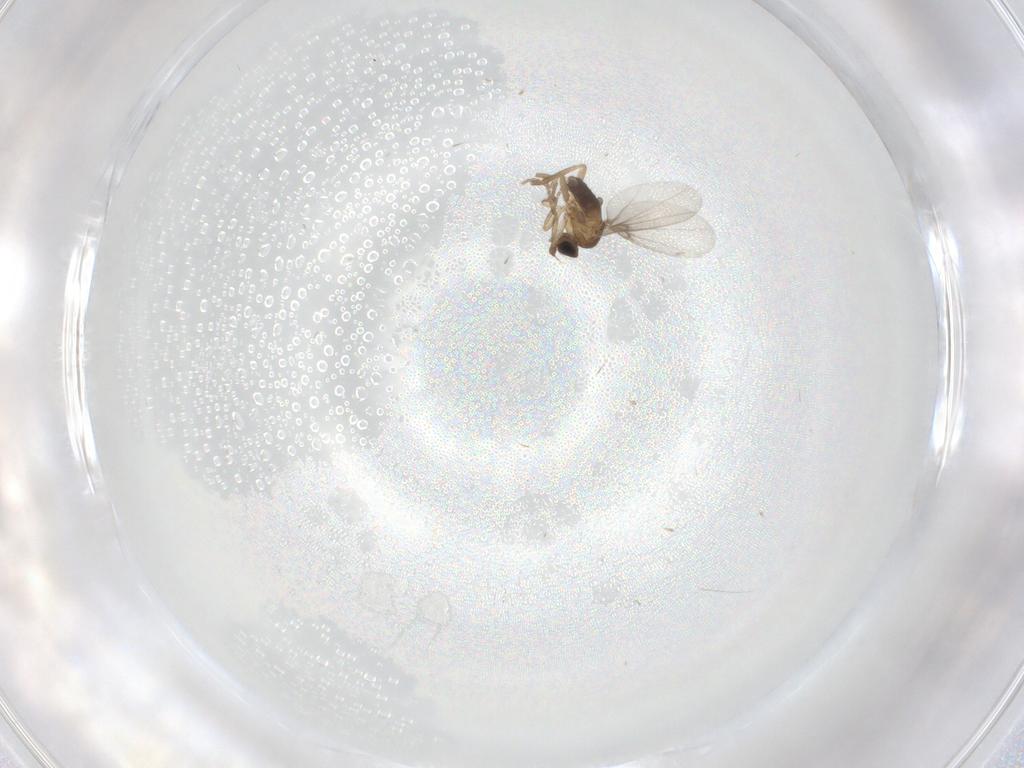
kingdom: Animalia
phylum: Arthropoda
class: Insecta
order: Diptera
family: Phoridae
